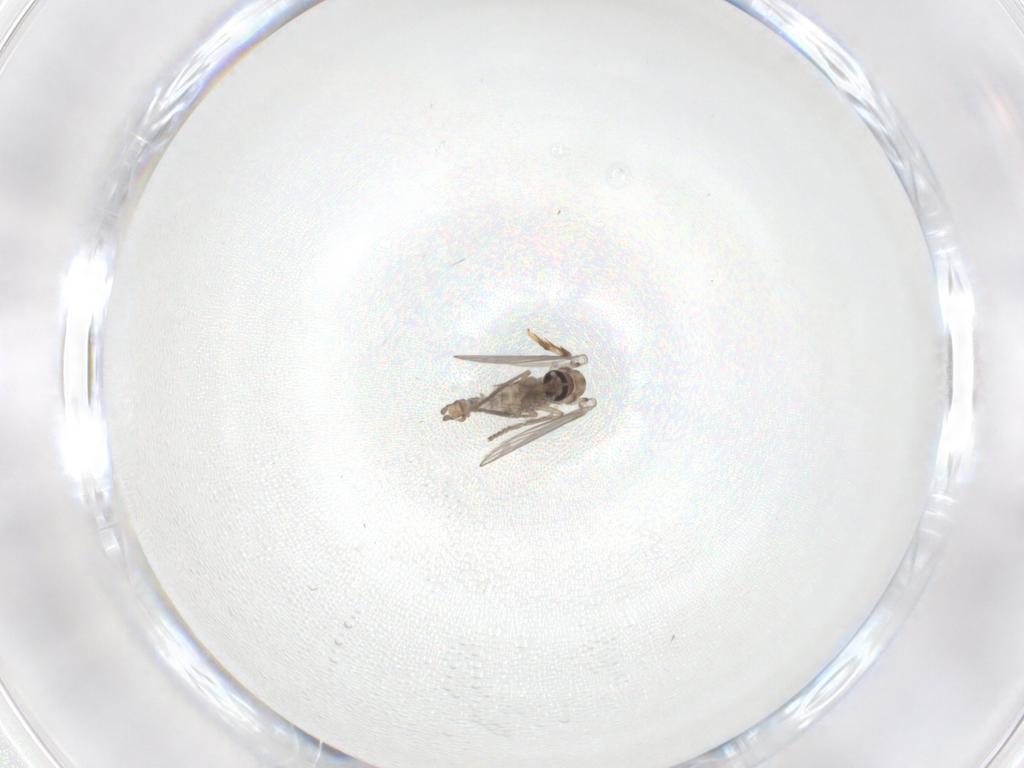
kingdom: Animalia
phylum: Arthropoda
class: Insecta
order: Diptera
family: Psychodidae
